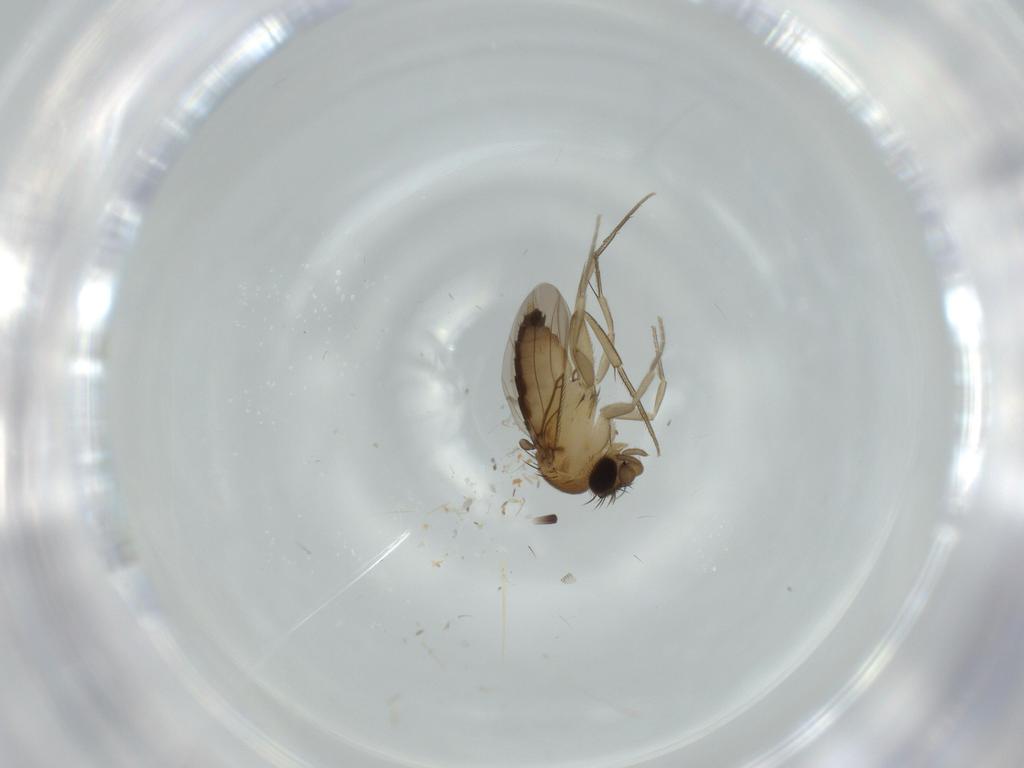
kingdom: Animalia
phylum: Arthropoda
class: Insecta
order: Diptera
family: Phoridae
